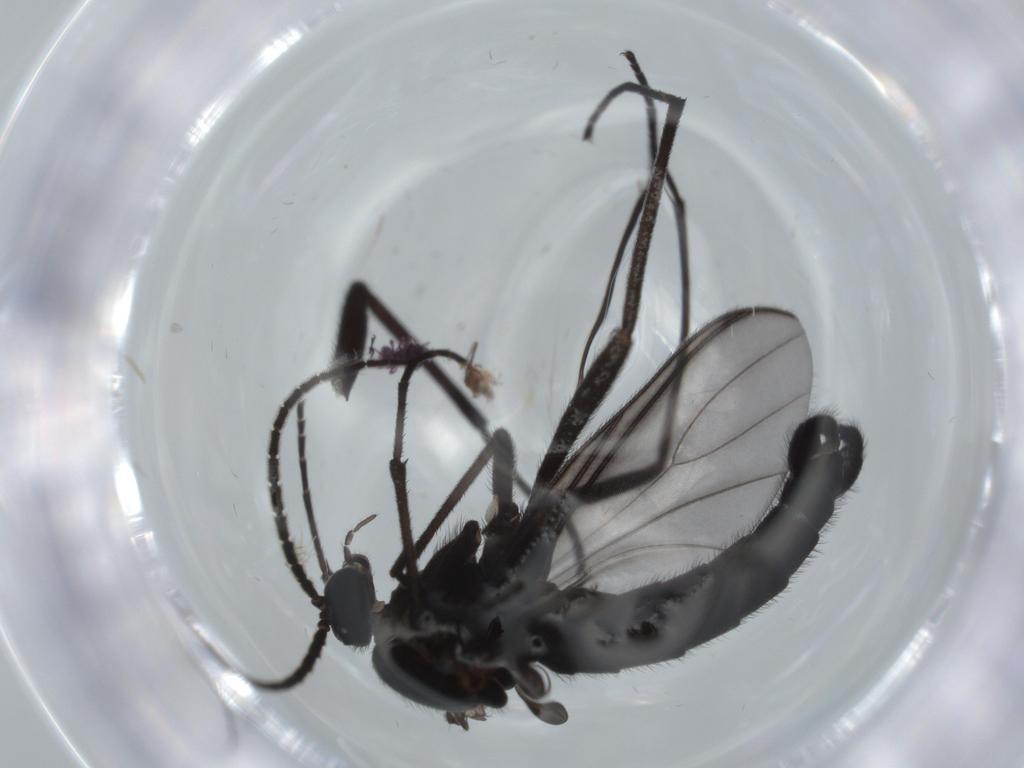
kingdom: Animalia
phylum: Arthropoda
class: Insecta
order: Diptera
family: Sciaridae
